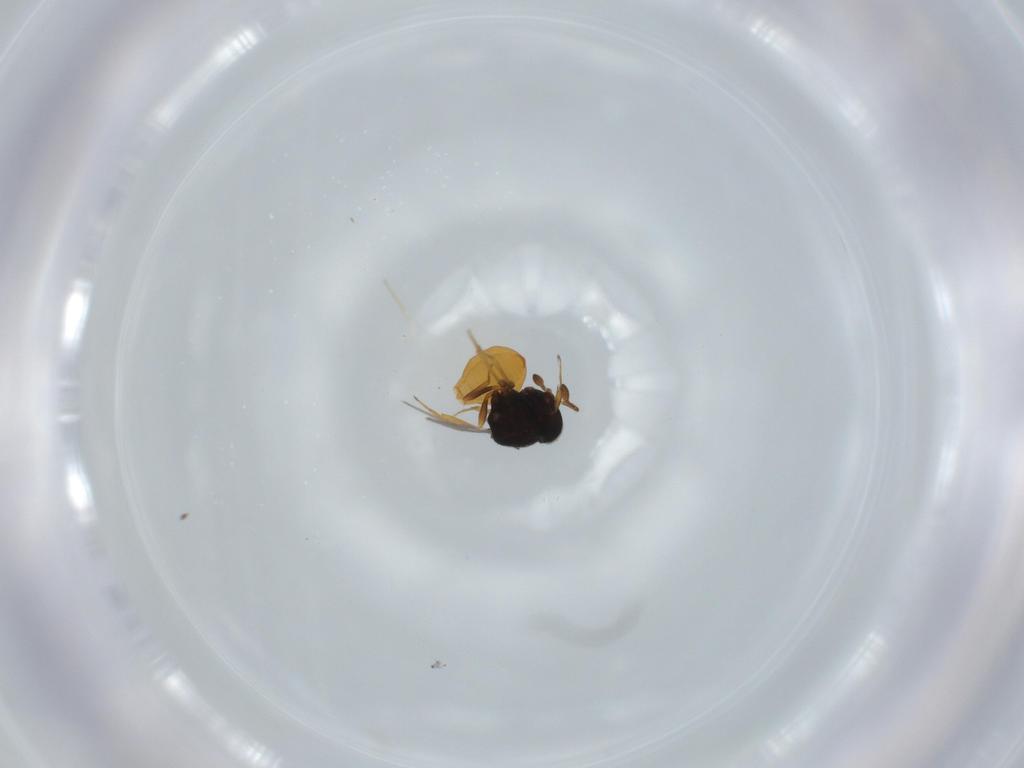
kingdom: Animalia
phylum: Arthropoda
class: Insecta
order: Hymenoptera
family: Scelionidae
